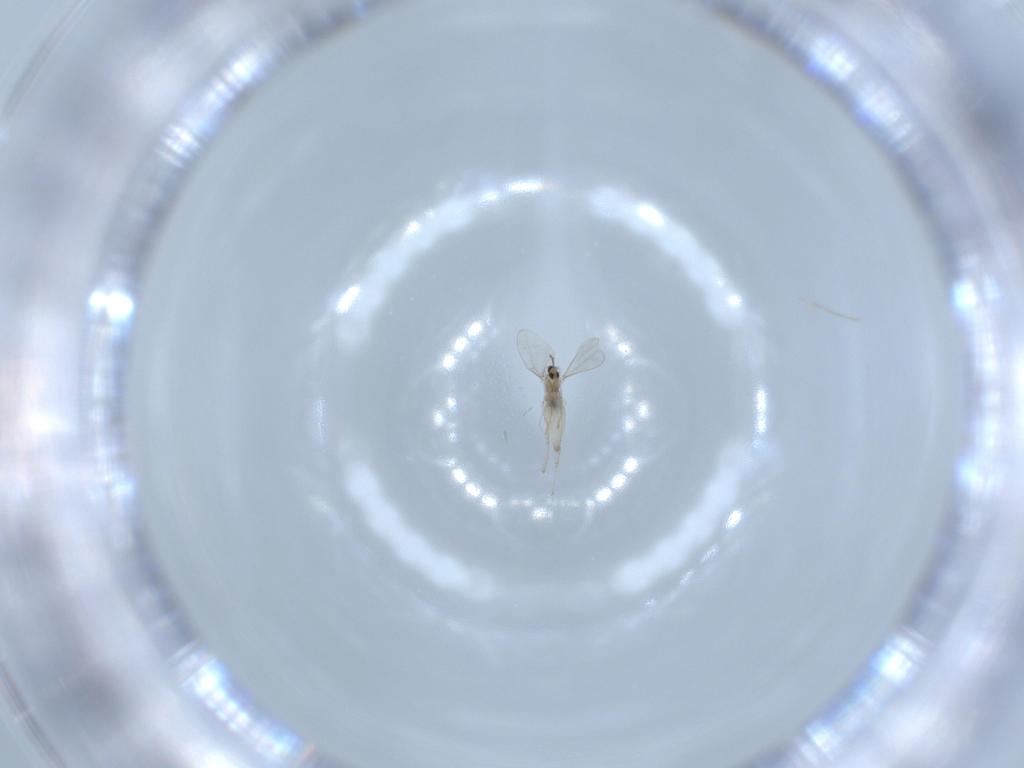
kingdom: Animalia
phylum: Arthropoda
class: Insecta
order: Diptera
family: Cecidomyiidae
